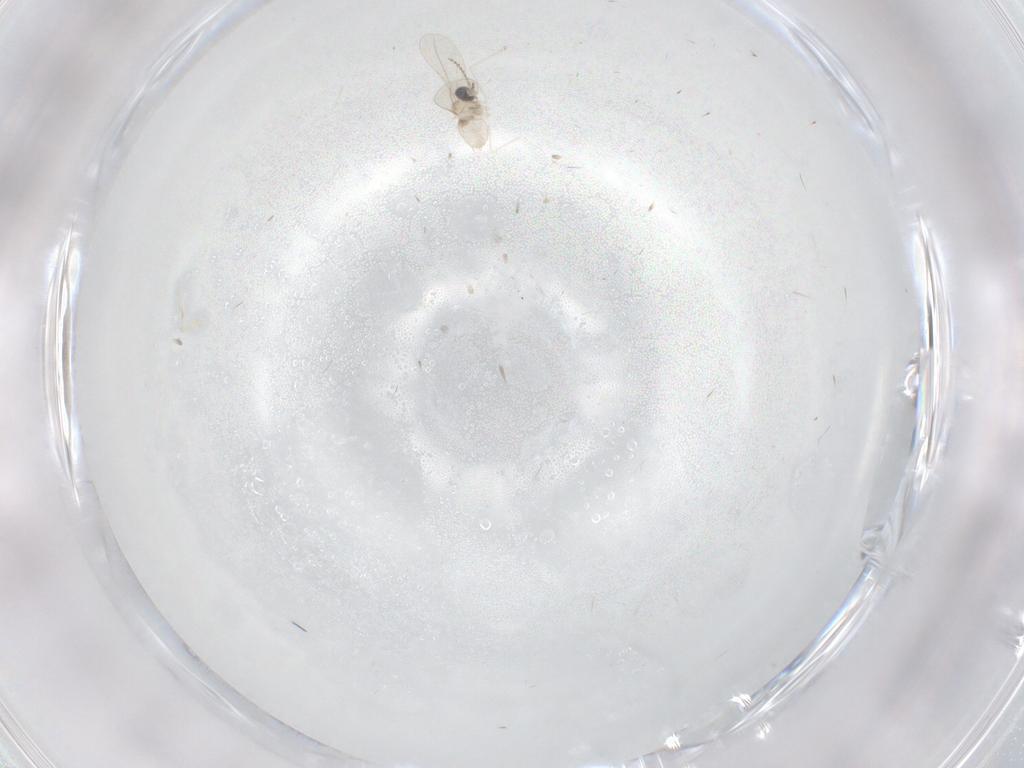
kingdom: Animalia
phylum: Arthropoda
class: Insecta
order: Diptera
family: Cecidomyiidae
